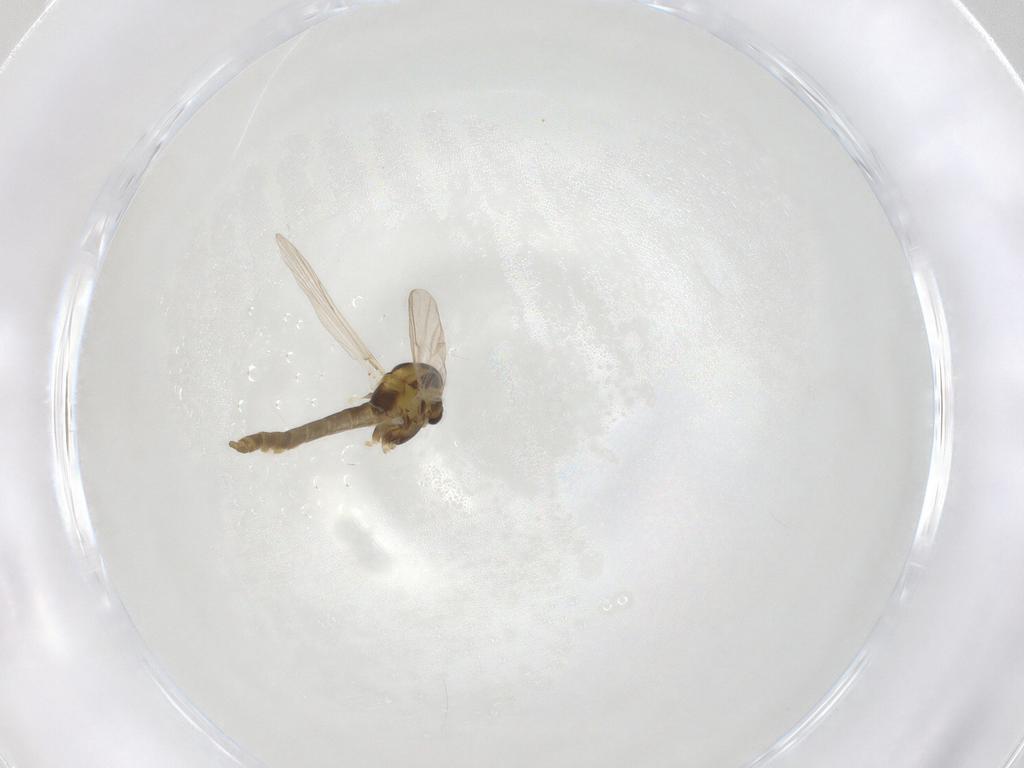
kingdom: Animalia
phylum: Arthropoda
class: Insecta
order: Diptera
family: Chironomidae
